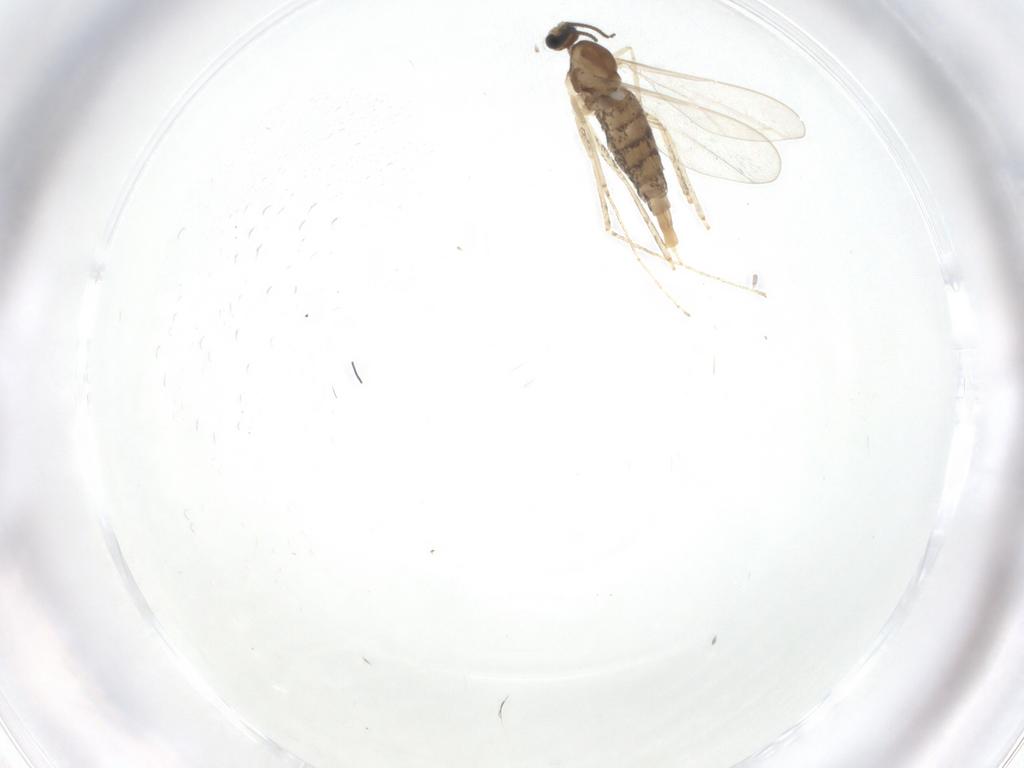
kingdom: Animalia
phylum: Arthropoda
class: Insecta
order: Diptera
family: Cecidomyiidae
